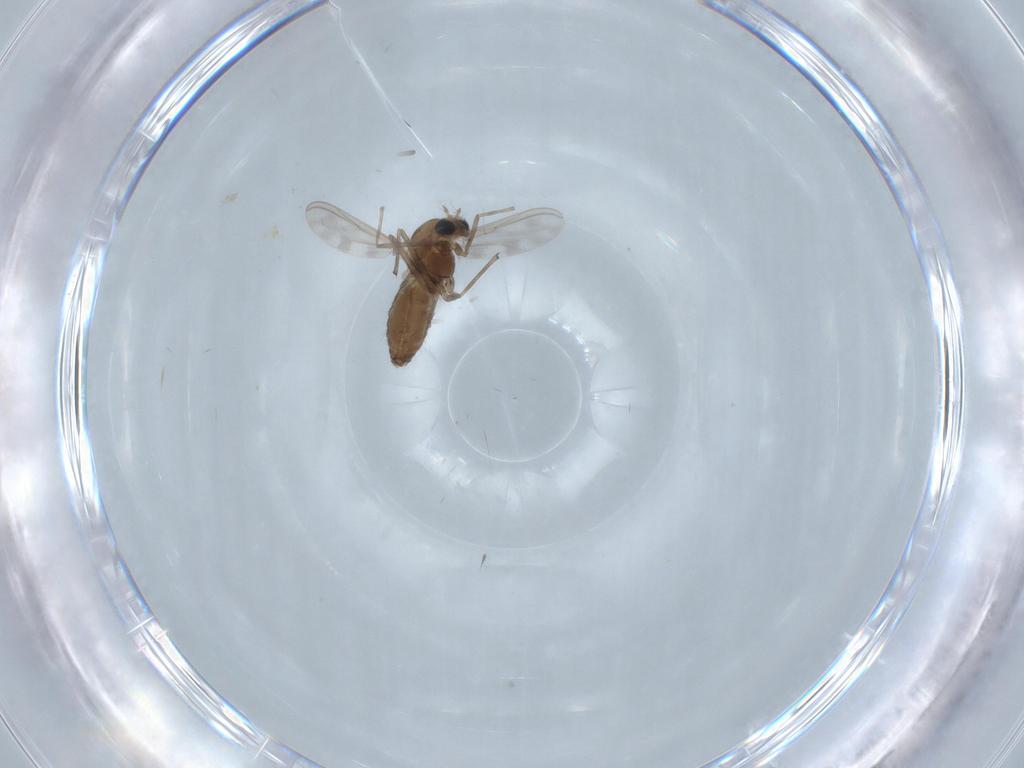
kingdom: Animalia
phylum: Arthropoda
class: Insecta
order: Diptera
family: Chironomidae
